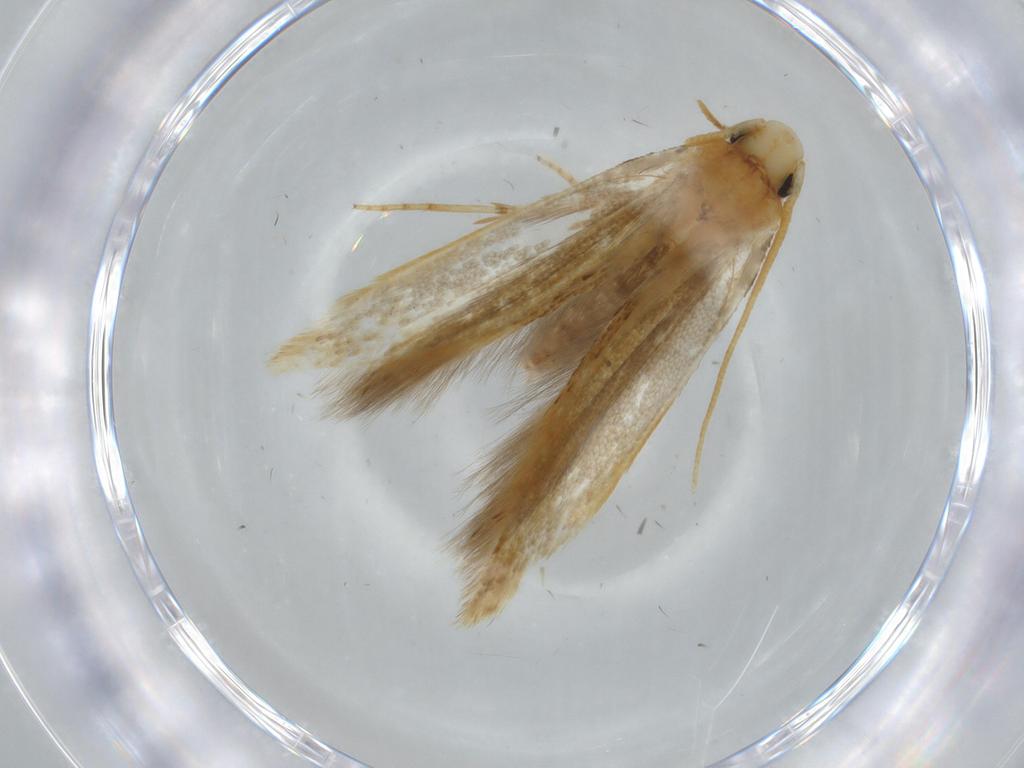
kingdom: Animalia
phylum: Arthropoda
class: Insecta
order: Lepidoptera
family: Tineidae
